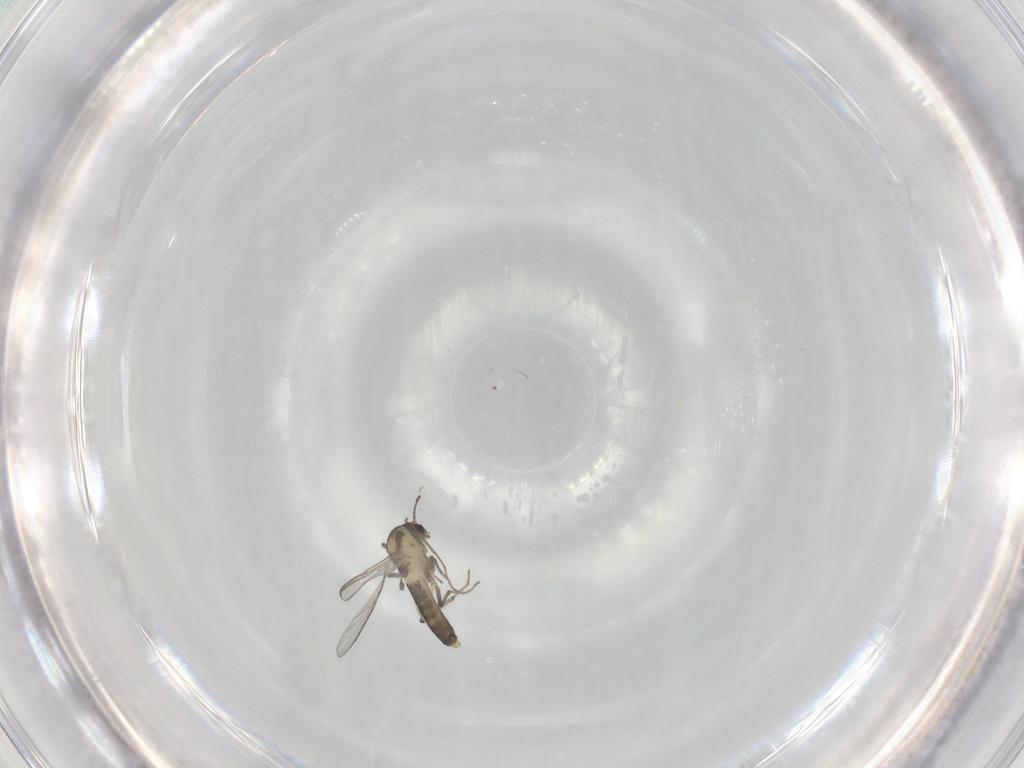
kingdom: Animalia
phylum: Arthropoda
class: Insecta
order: Diptera
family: Chironomidae
